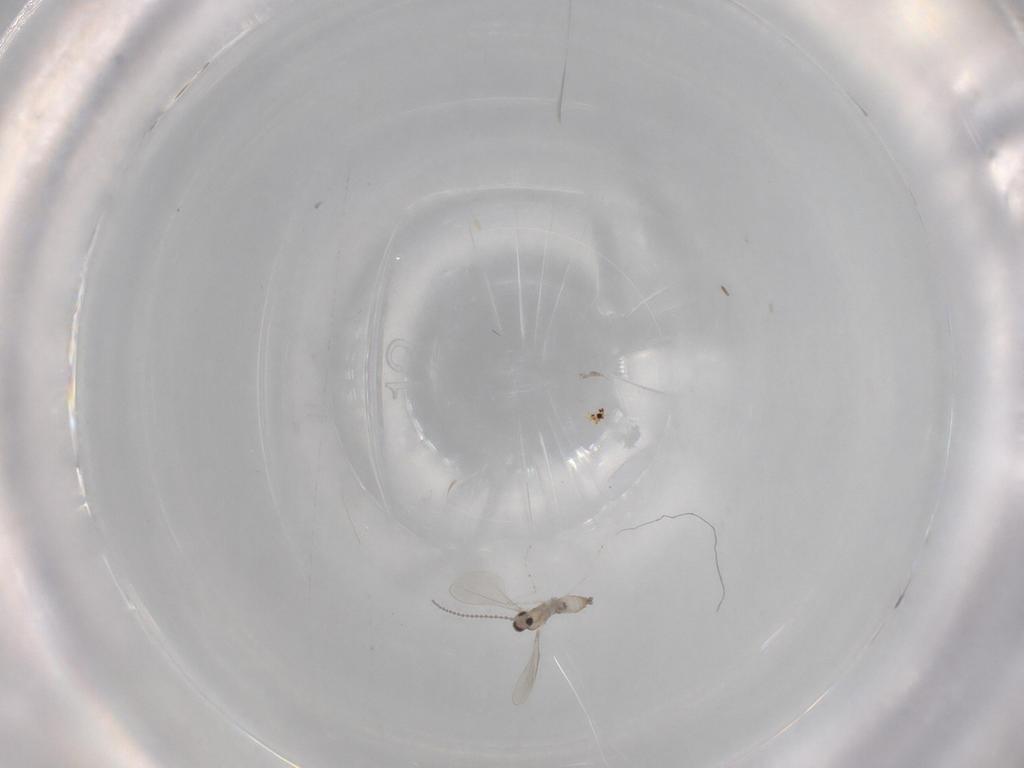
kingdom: Animalia
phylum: Arthropoda
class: Insecta
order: Diptera
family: Cecidomyiidae
